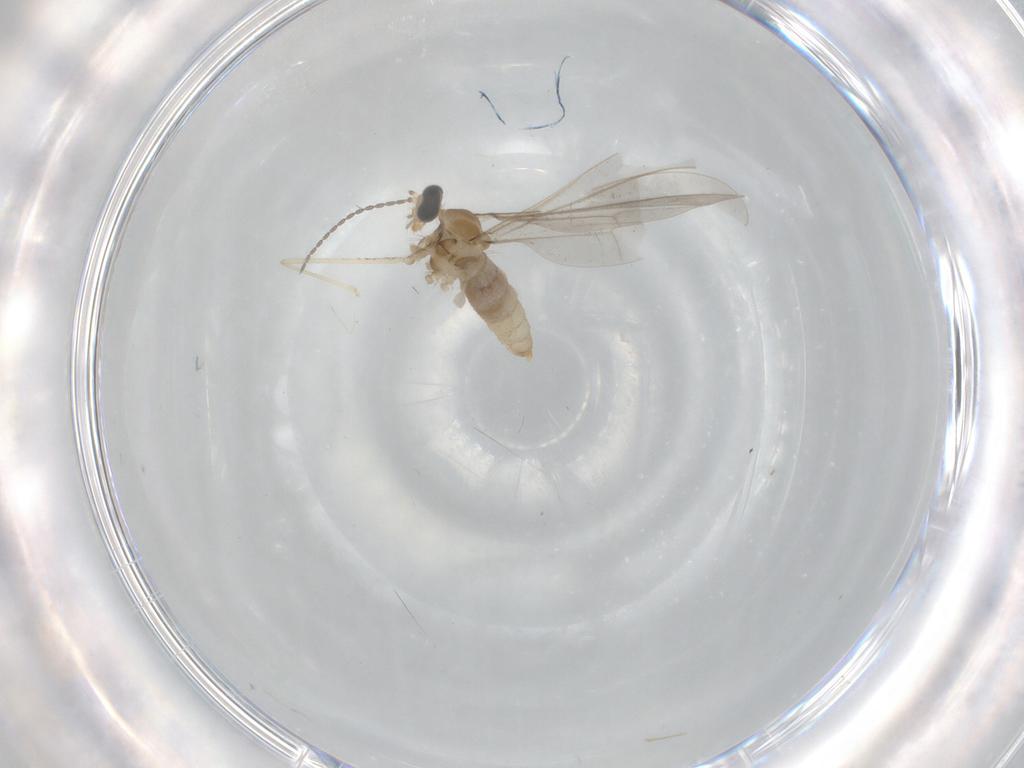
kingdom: Animalia
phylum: Arthropoda
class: Insecta
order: Diptera
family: Cecidomyiidae
